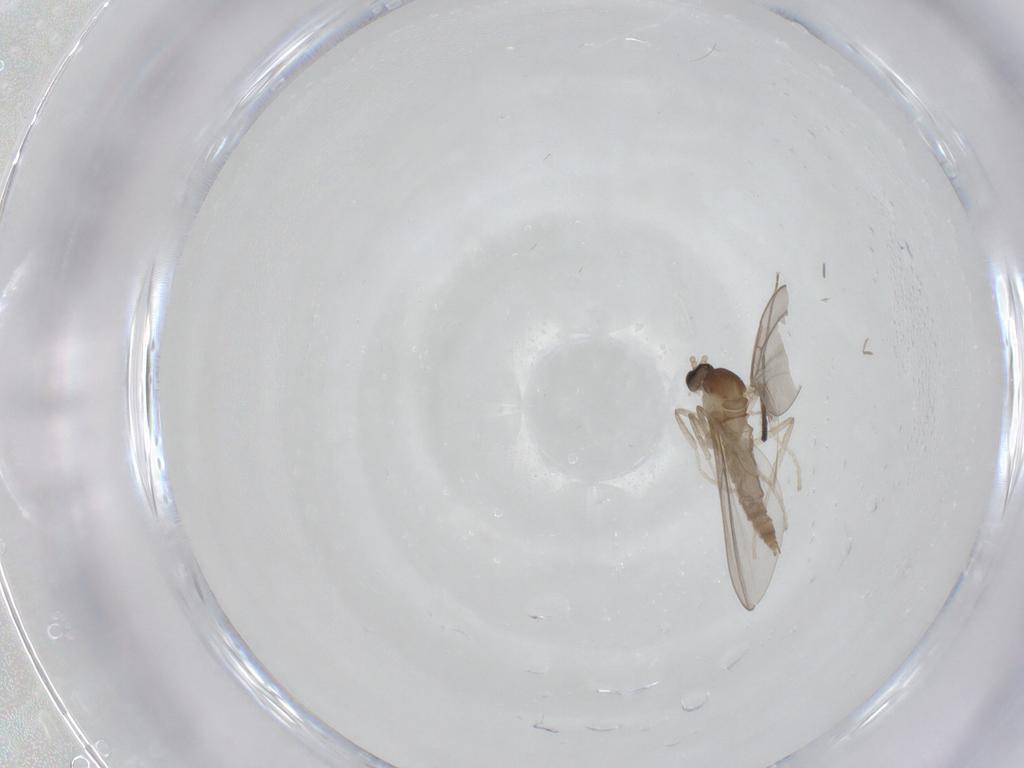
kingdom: Animalia
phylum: Arthropoda
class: Insecta
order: Diptera
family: Cecidomyiidae
